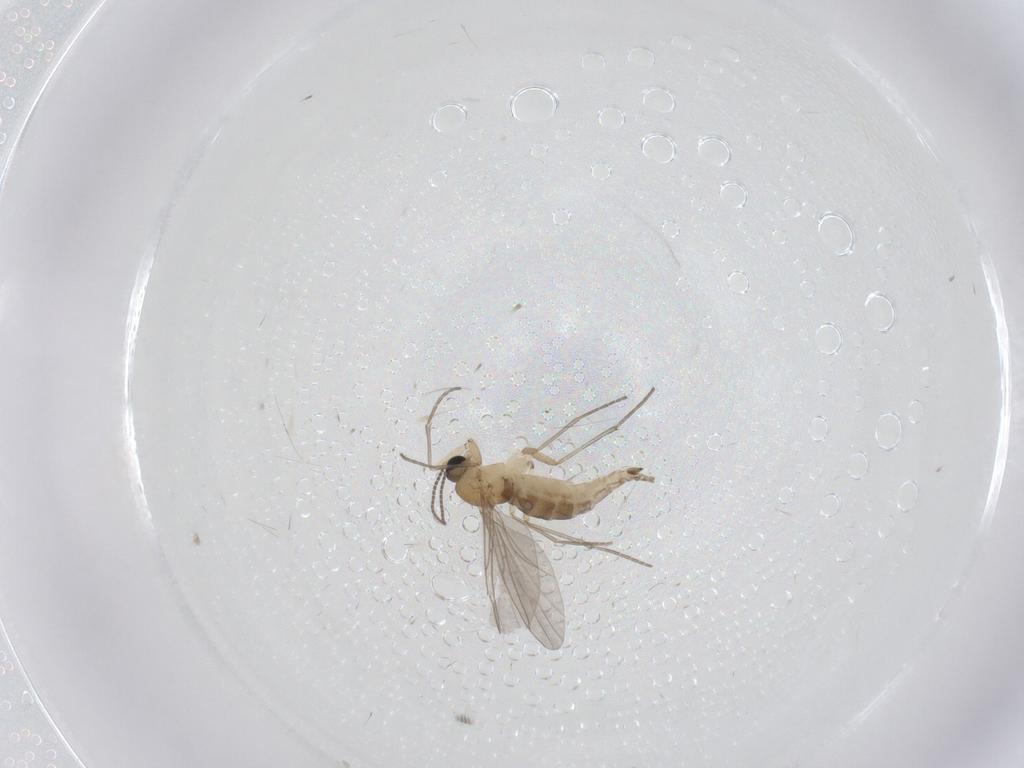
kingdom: Animalia
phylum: Arthropoda
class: Insecta
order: Diptera
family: Sciaridae
